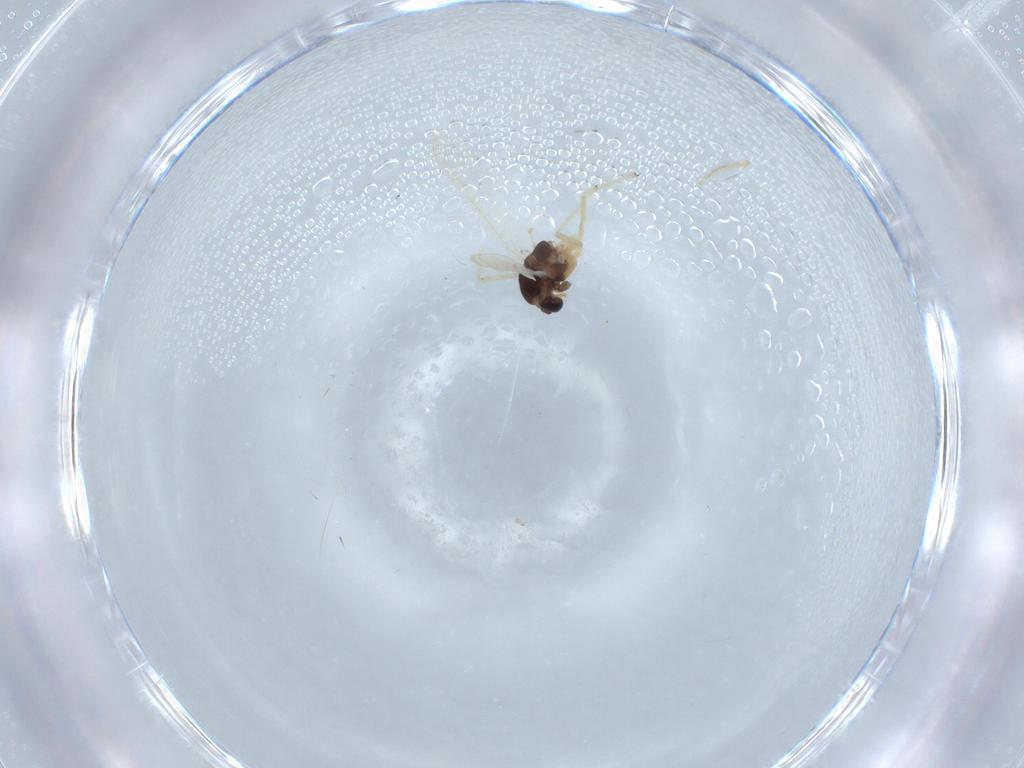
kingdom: Animalia
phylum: Arthropoda
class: Insecta
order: Diptera
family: Chironomidae
